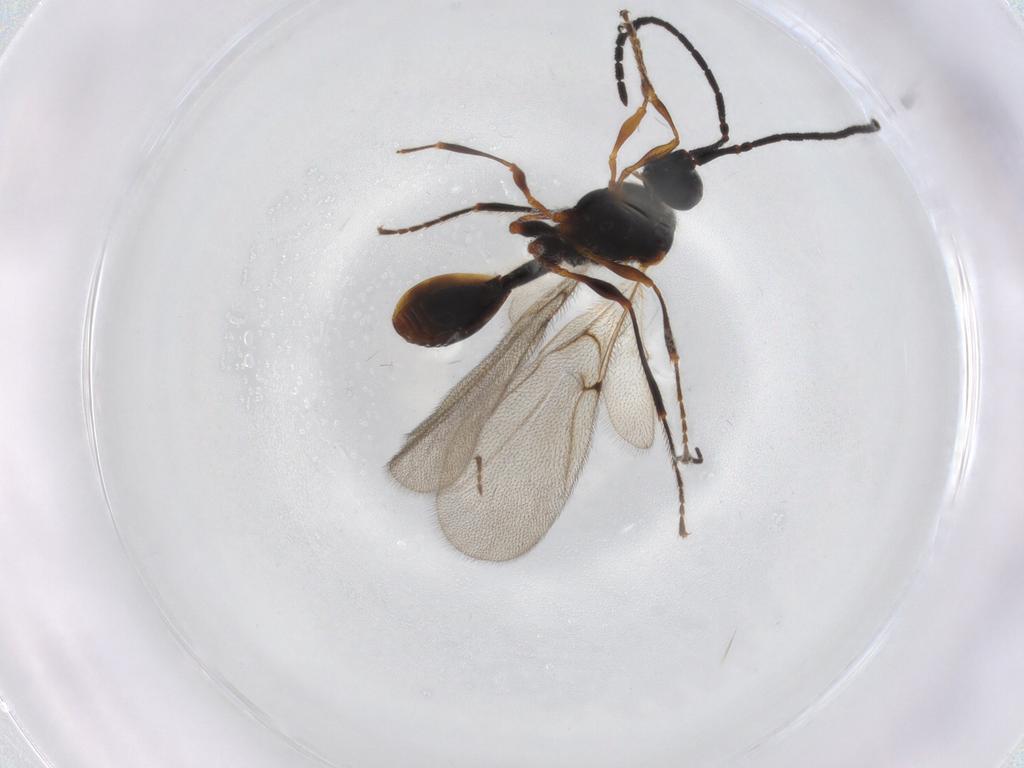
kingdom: Animalia
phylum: Arthropoda
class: Insecta
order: Hymenoptera
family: Diapriidae
